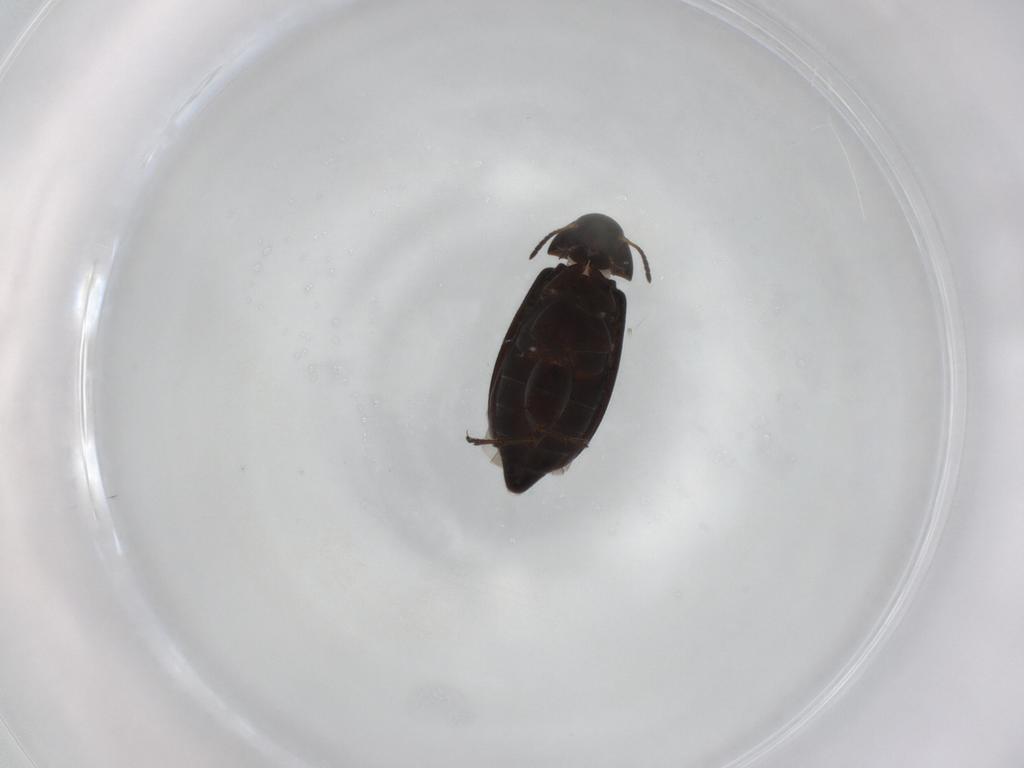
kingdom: Animalia
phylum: Arthropoda
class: Insecta
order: Coleoptera
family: Scraptiidae
